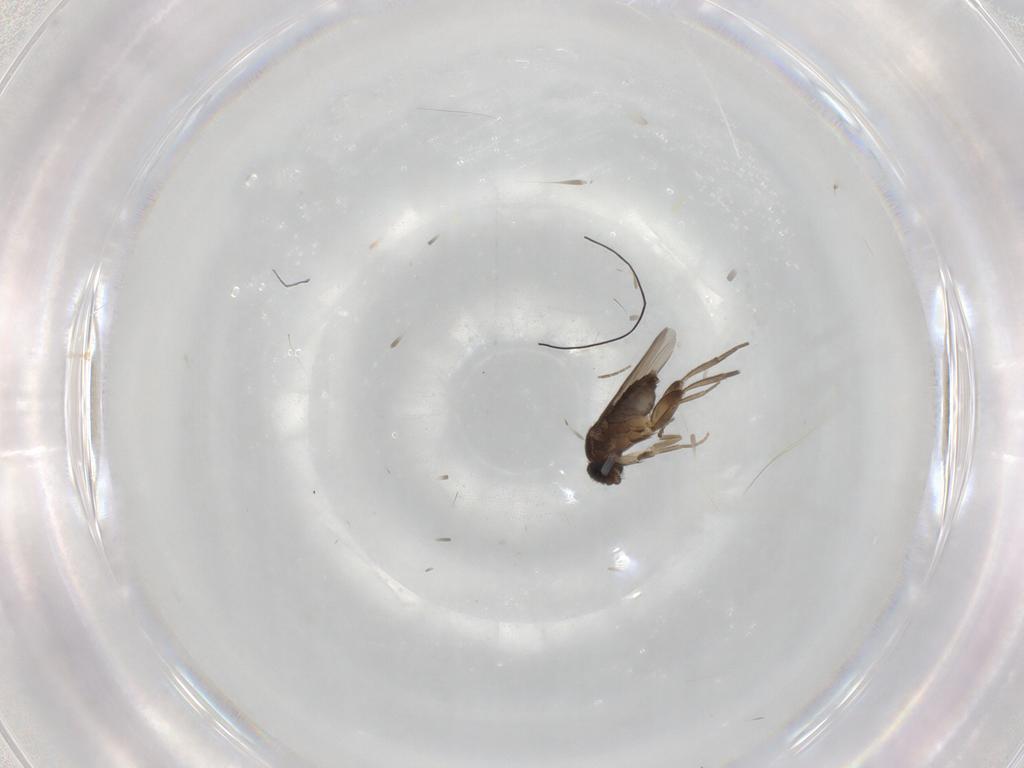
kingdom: Animalia
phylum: Arthropoda
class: Insecta
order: Diptera
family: Phoridae
